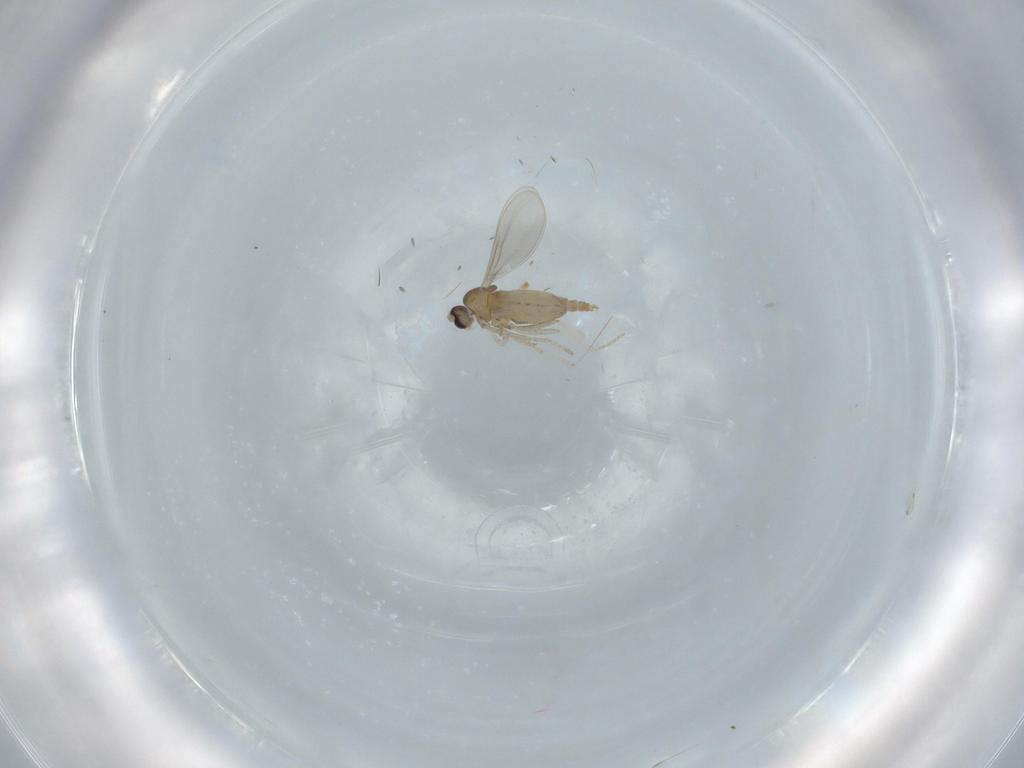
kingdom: Animalia
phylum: Arthropoda
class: Insecta
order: Diptera
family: Cecidomyiidae
